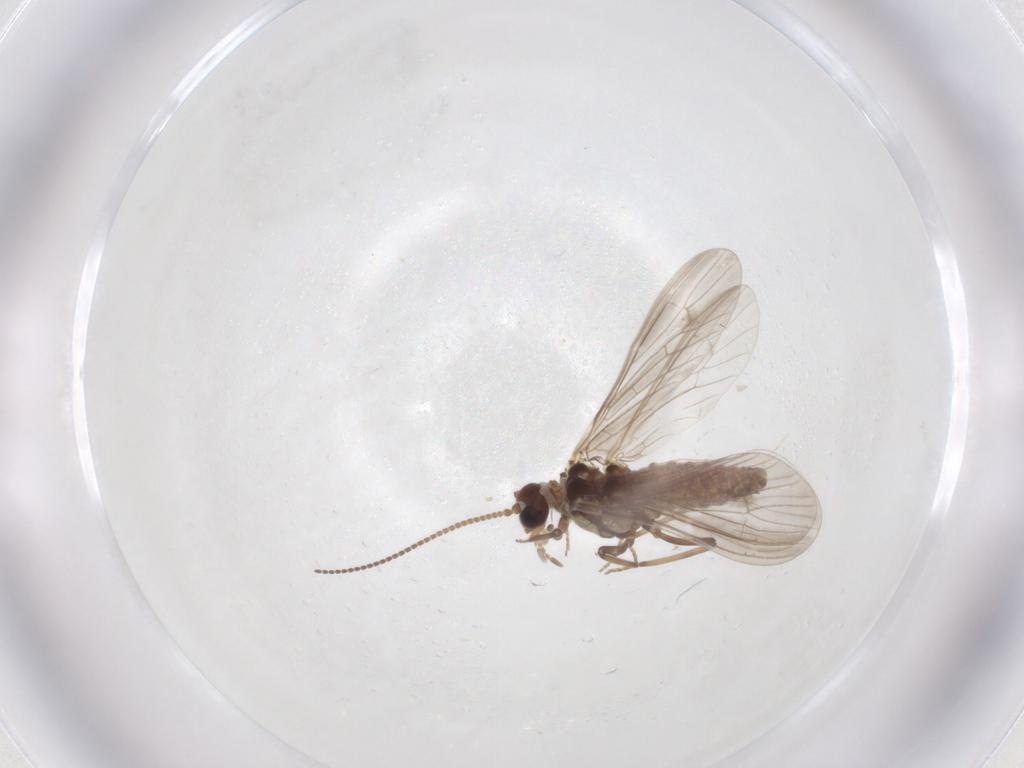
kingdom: Animalia
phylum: Arthropoda
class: Insecta
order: Neuroptera
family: Coniopterygidae
